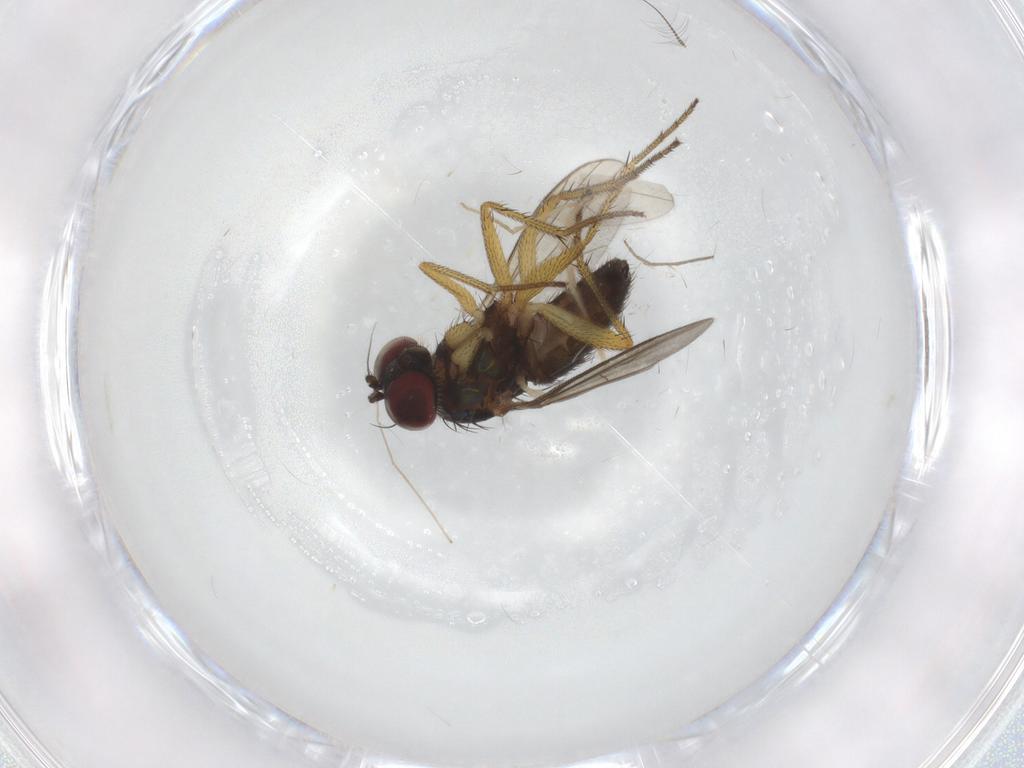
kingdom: Animalia
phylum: Arthropoda
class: Insecta
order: Diptera
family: Chironomidae
